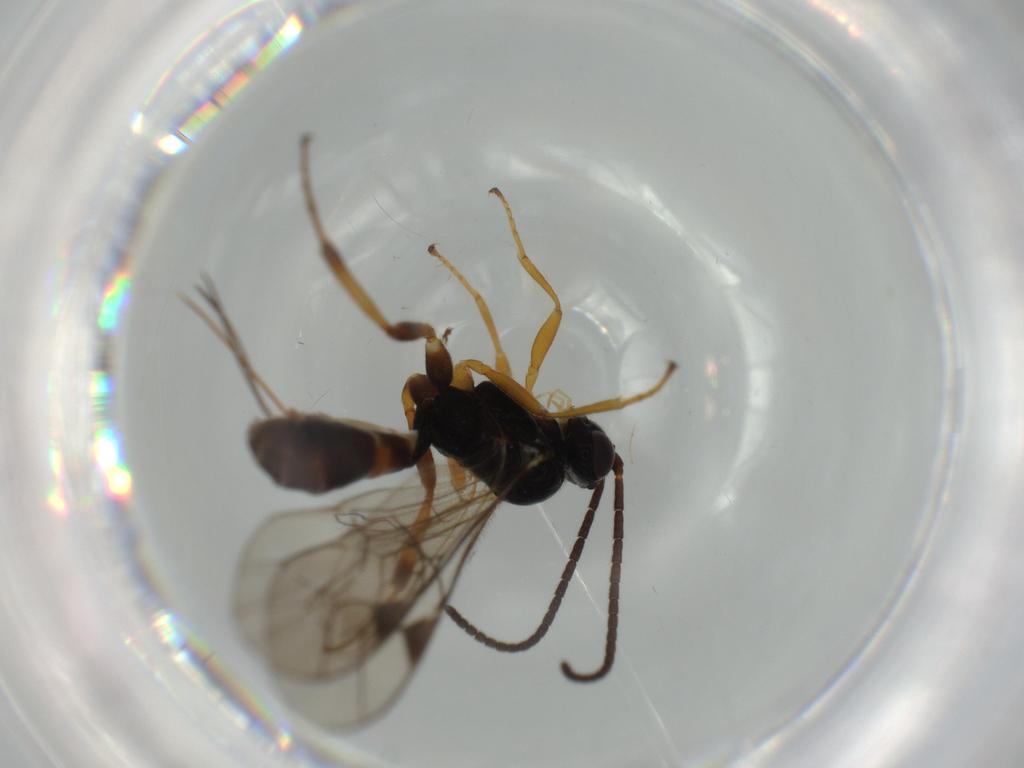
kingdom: Animalia
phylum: Arthropoda
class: Insecta
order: Hymenoptera
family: Ichneumonidae
